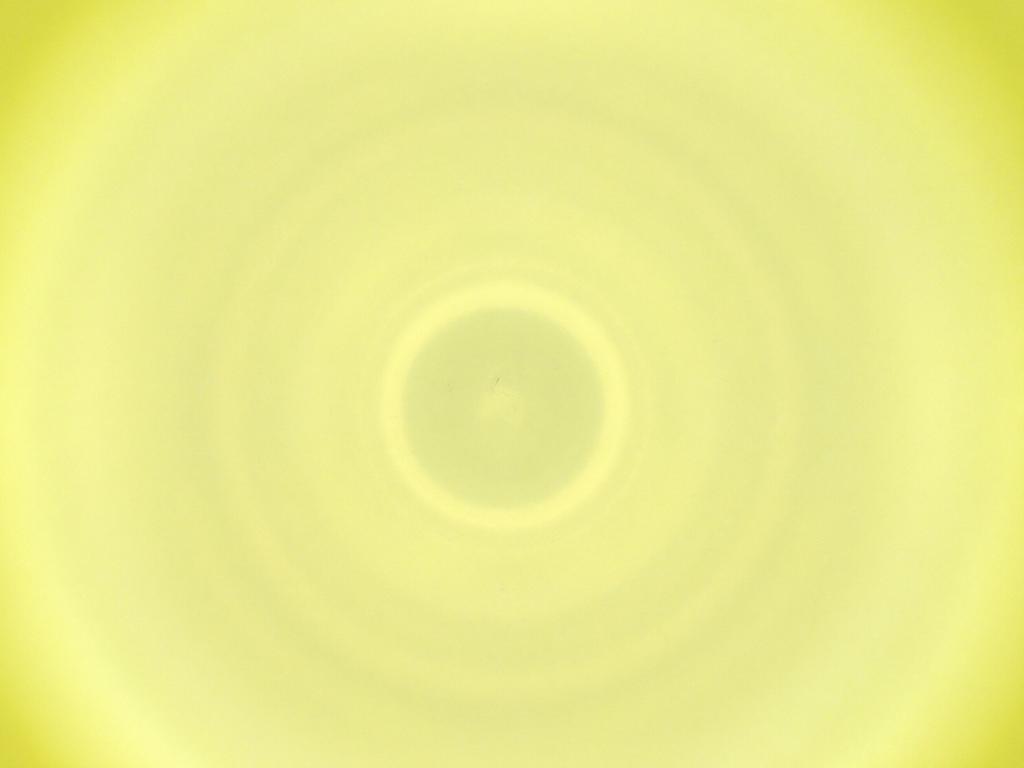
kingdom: Animalia
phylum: Arthropoda
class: Insecta
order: Diptera
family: Cecidomyiidae
